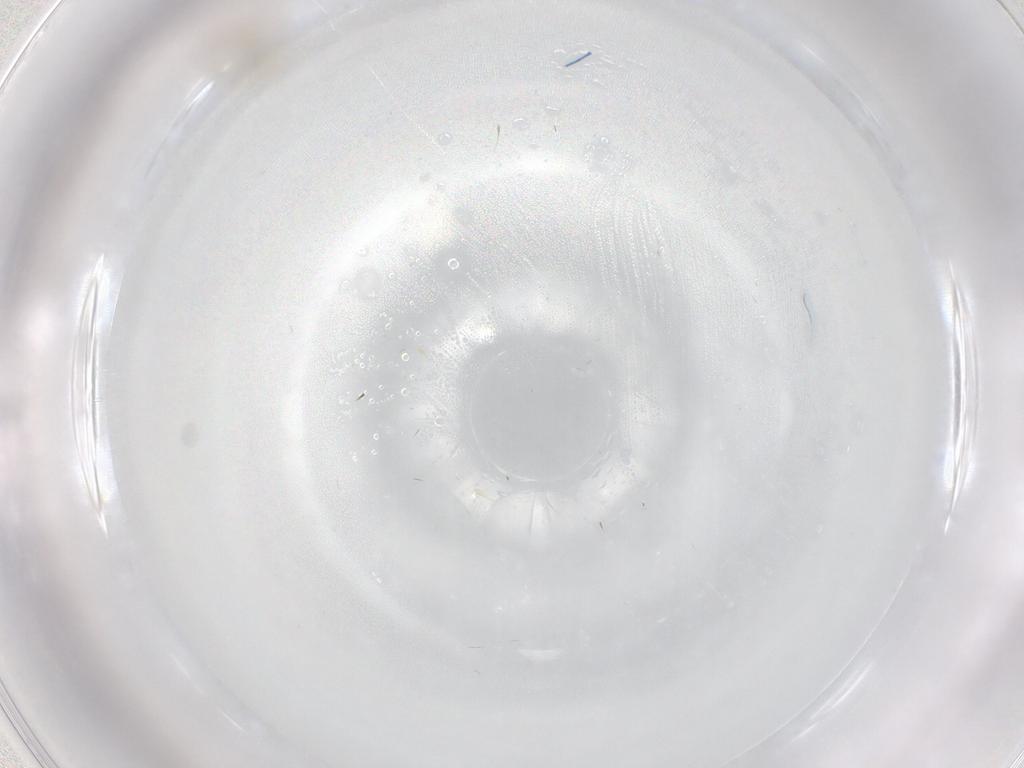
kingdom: Animalia
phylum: Arthropoda
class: Insecta
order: Diptera
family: Cecidomyiidae
